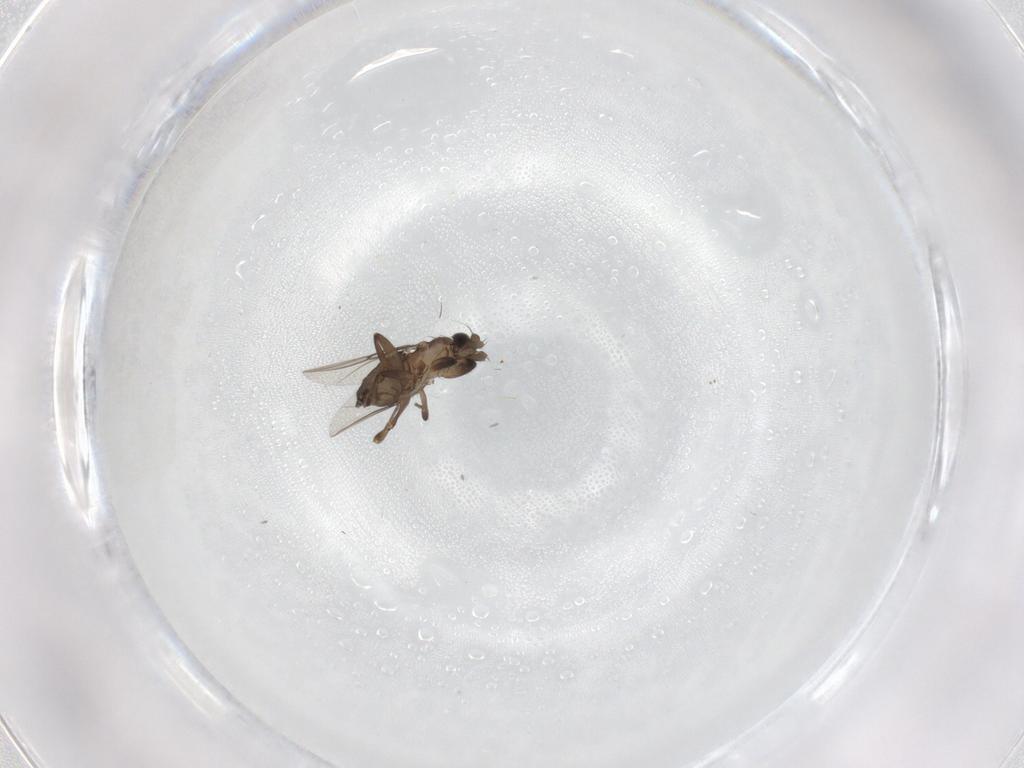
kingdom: Animalia
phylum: Arthropoda
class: Insecta
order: Diptera
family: Phoridae
